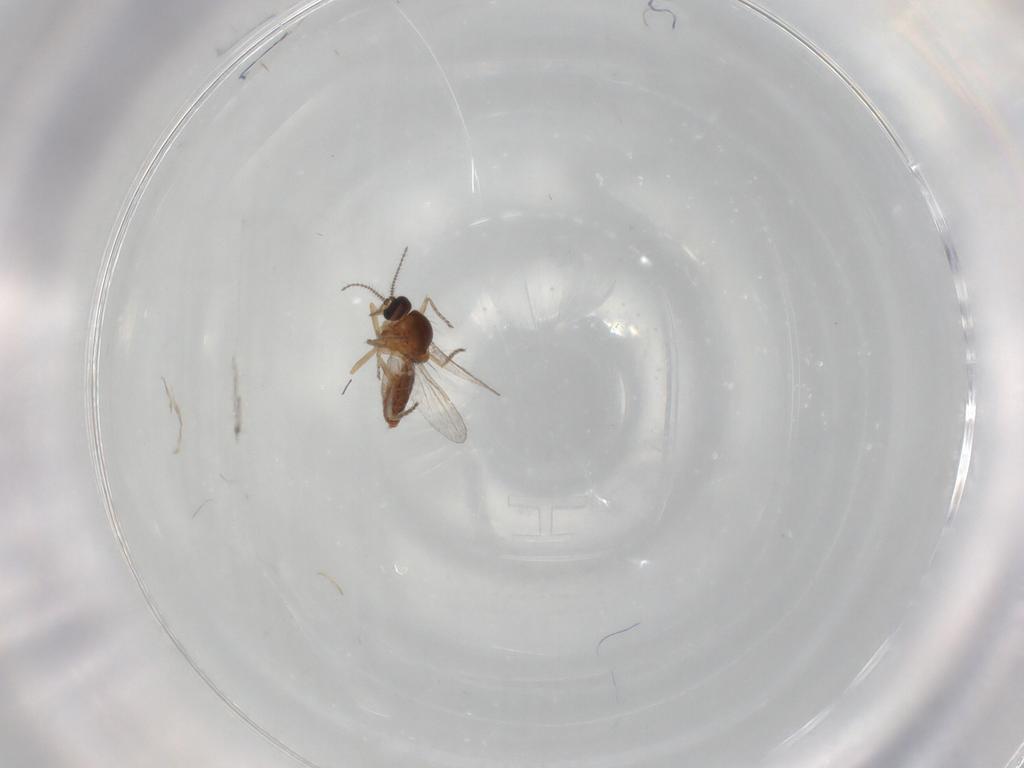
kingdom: Animalia
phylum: Arthropoda
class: Insecta
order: Diptera
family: Ceratopogonidae
